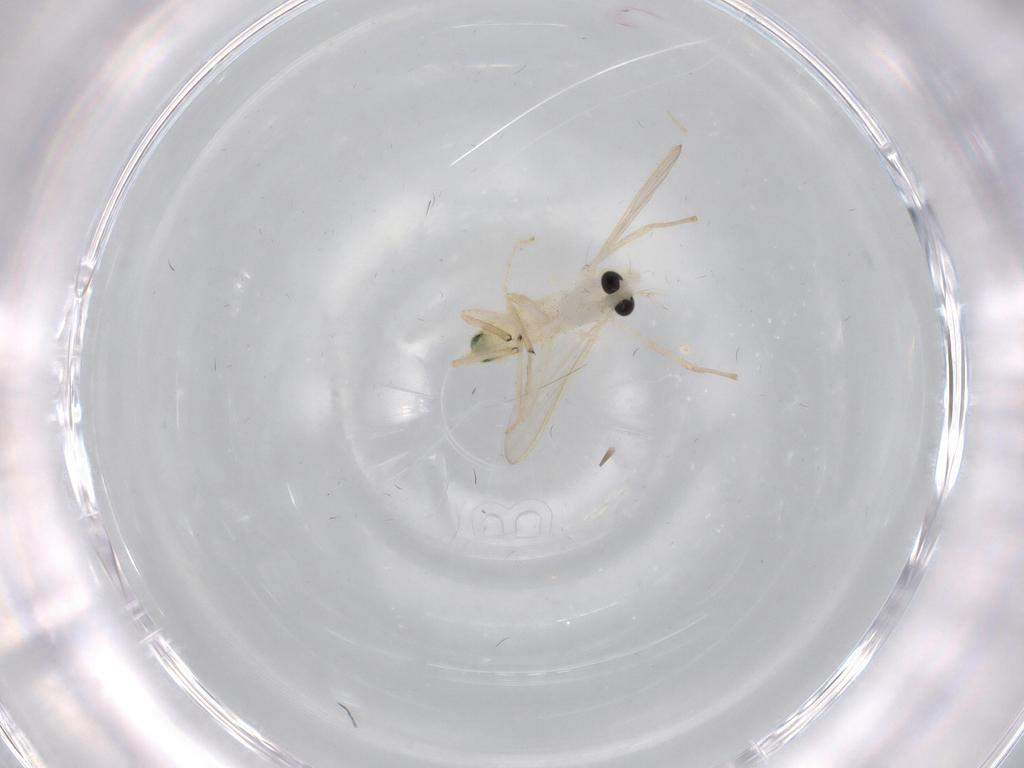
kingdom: Animalia
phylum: Arthropoda
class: Insecta
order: Diptera
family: Chironomidae
